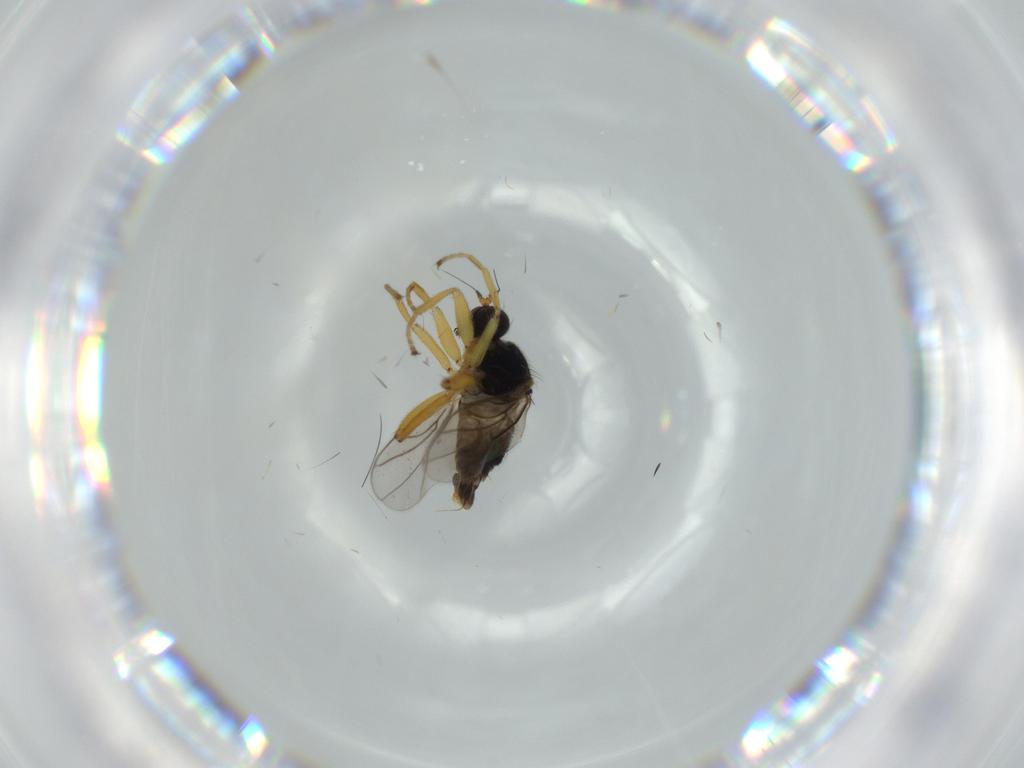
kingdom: Animalia
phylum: Arthropoda
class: Insecta
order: Diptera
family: Hybotidae
